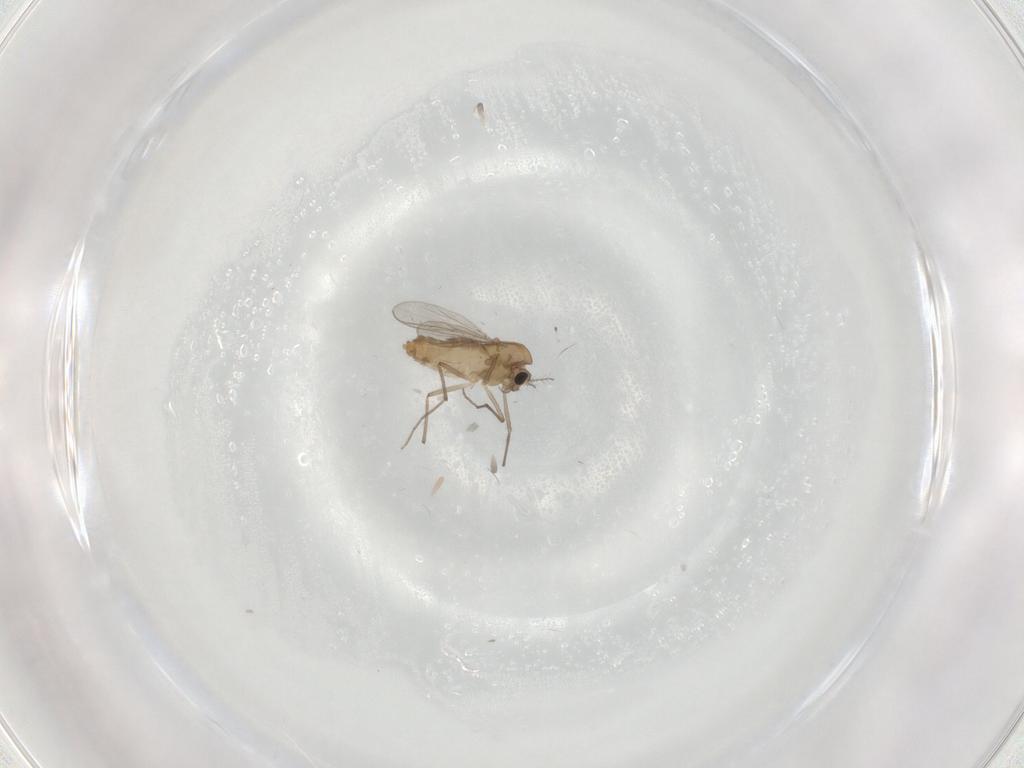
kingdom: Animalia
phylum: Arthropoda
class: Insecta
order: Diptera
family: Chironomidae
